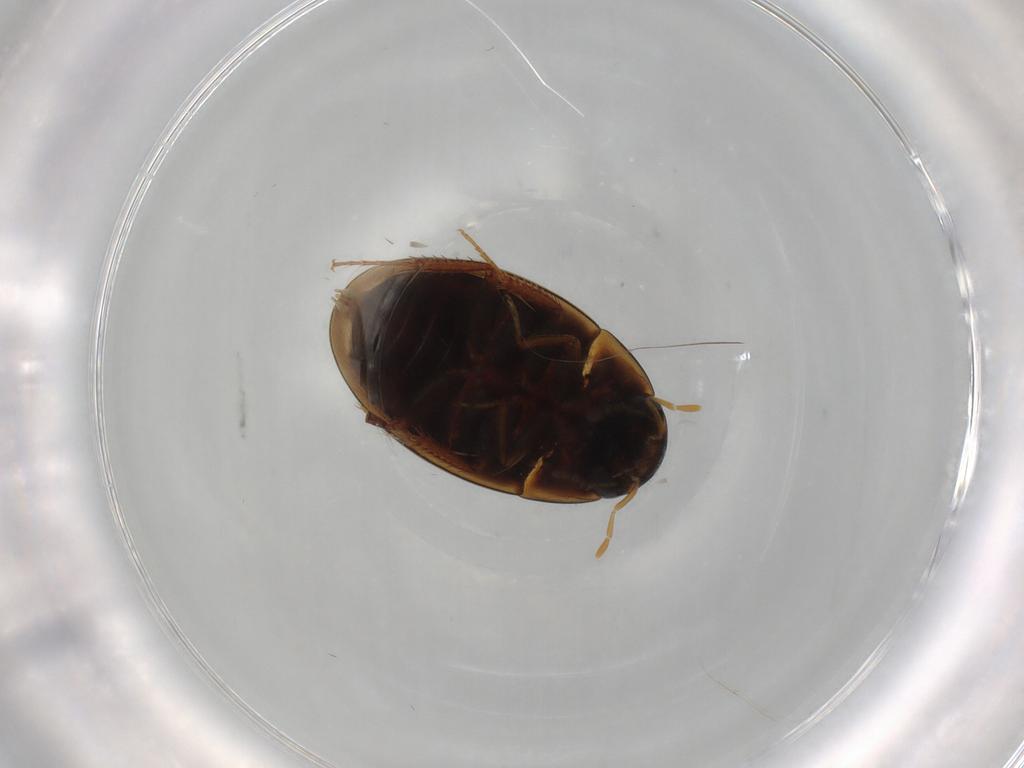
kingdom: Animalia
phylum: Arthropoda
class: Insecta
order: Coleoptera
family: Hydrophilidae
